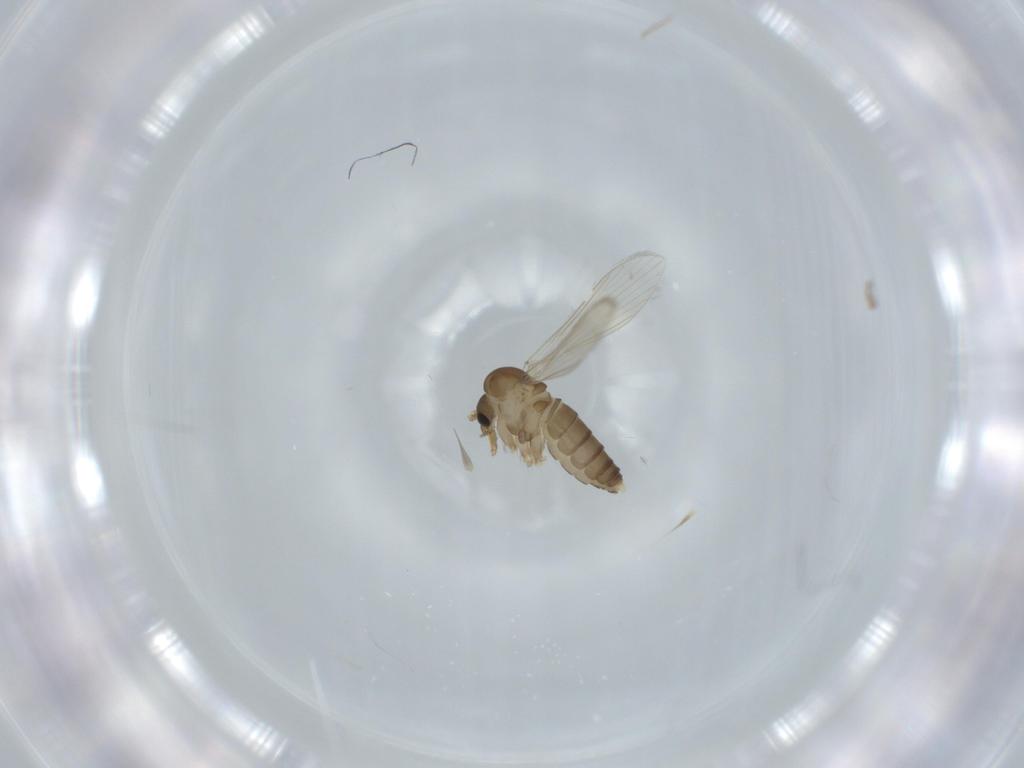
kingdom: Animalia
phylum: Arthropoda
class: Insecta
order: Diptera
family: Psychodidae
